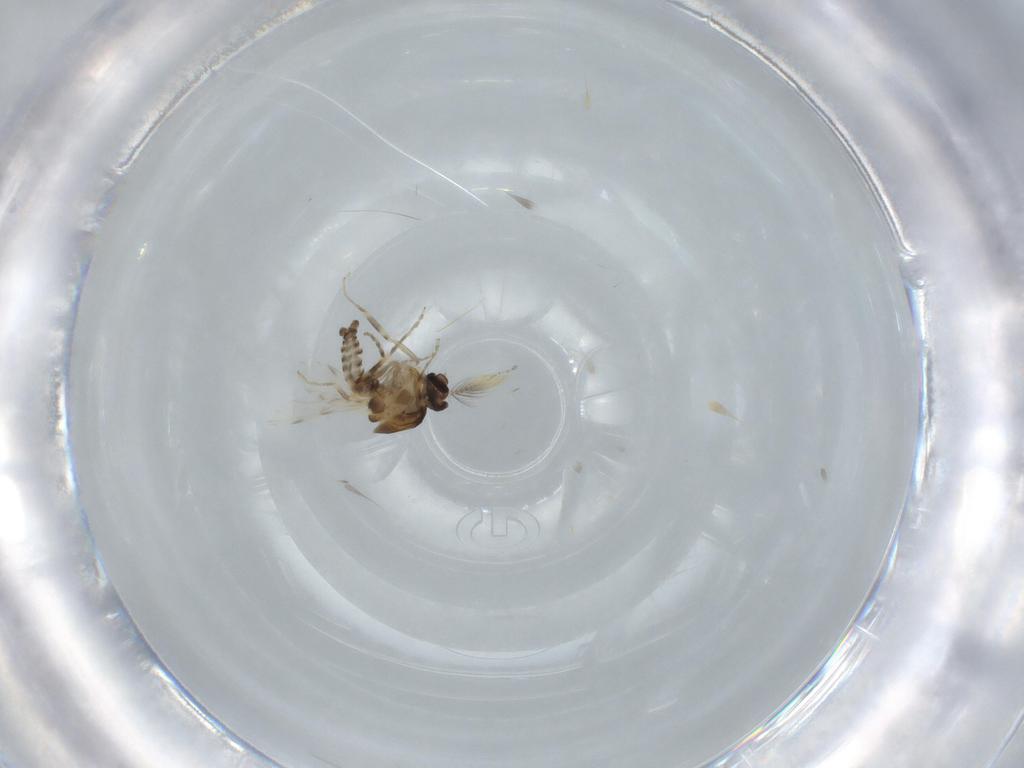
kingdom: Animalia
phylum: Arthropoda
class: Insecta
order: Diptera
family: Ceratopogonidae
